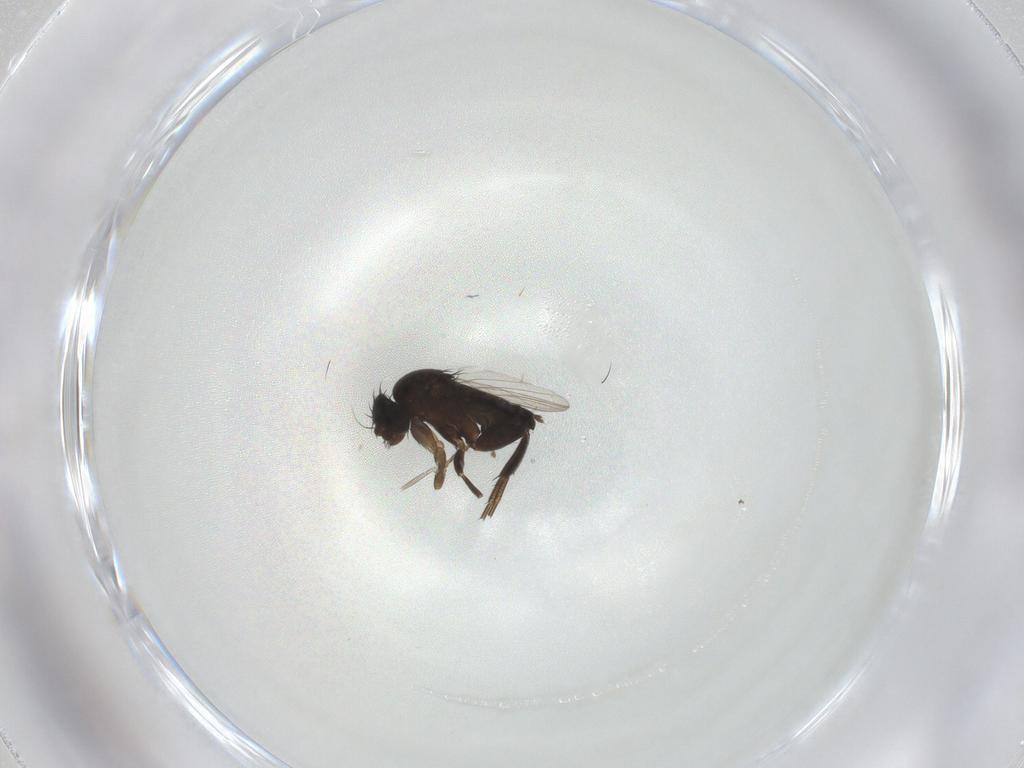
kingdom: Animalia
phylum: Arthropoda
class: Insecta
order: Diptera
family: Phoridae
